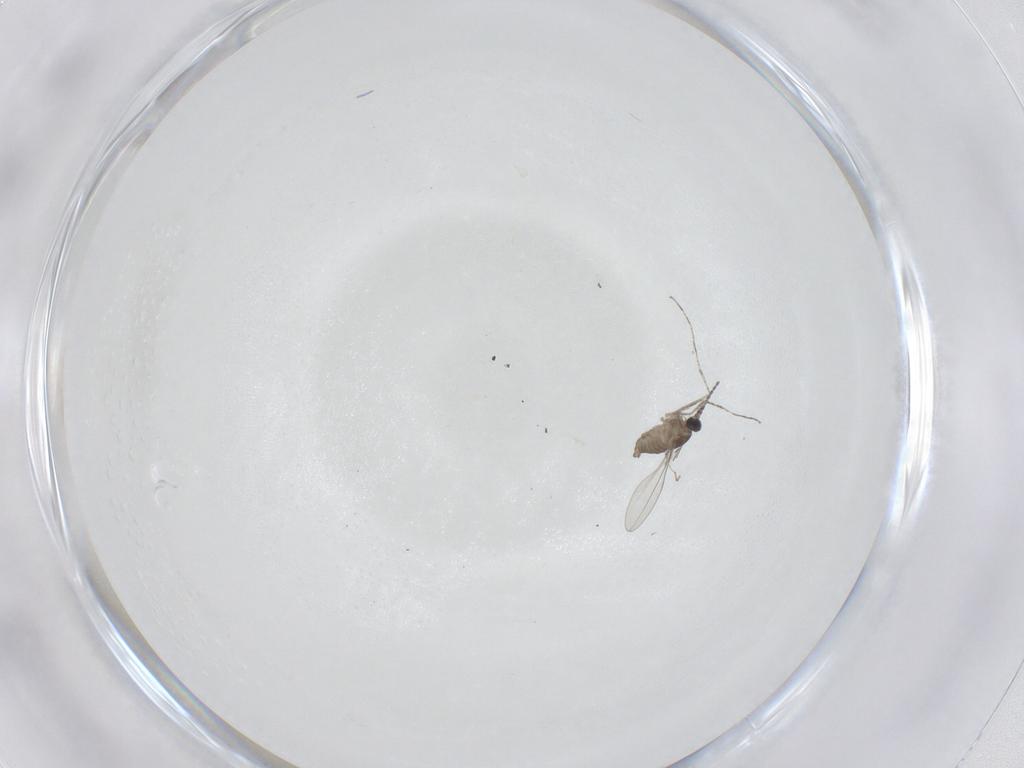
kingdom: Animalia
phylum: Arthropoda
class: Insecta
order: Diptera
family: Cecidomyiidae
